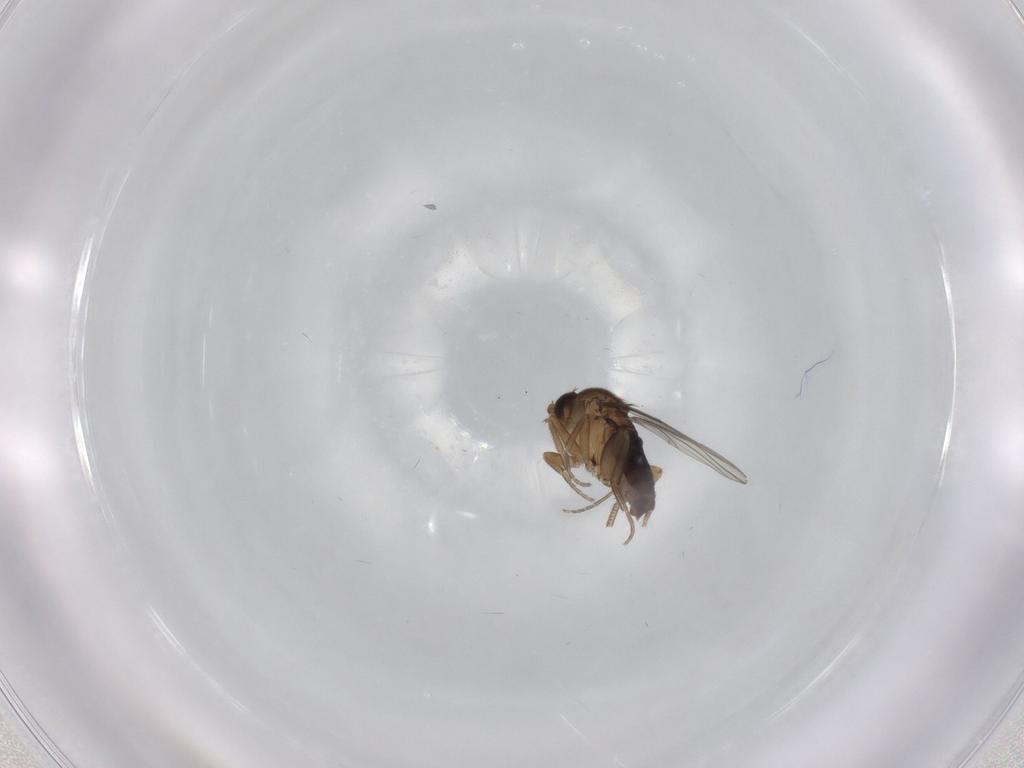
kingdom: Animalia
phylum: Arthropoda
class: Insecta
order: Diptera
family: Phoridae
